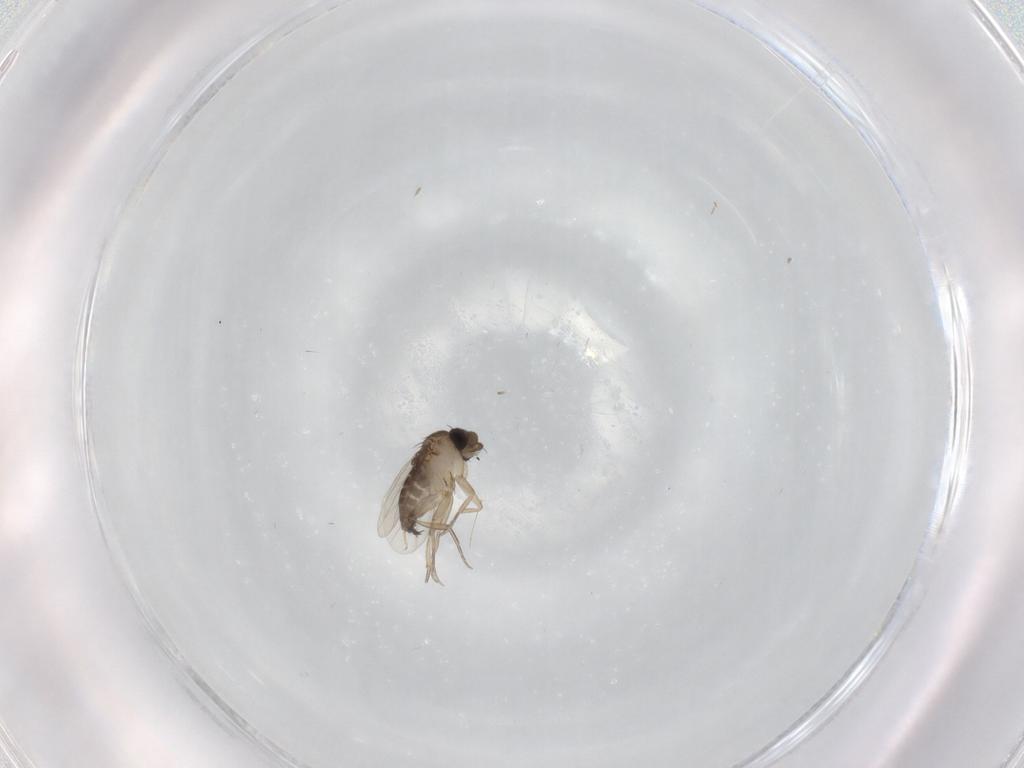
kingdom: Animalia
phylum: Arthropoda
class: Insecta
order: Diptera
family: Phoridae
